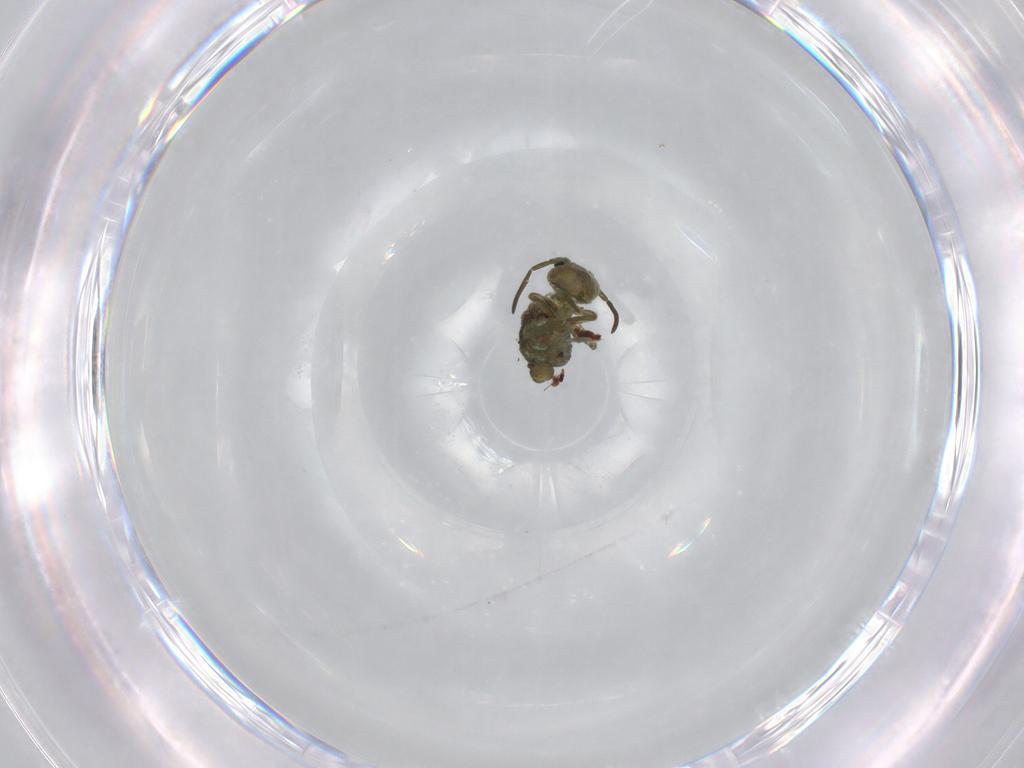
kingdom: Animalia
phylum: Arthropoda
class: Collembola
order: Symphypleona
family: Sminthuridae
